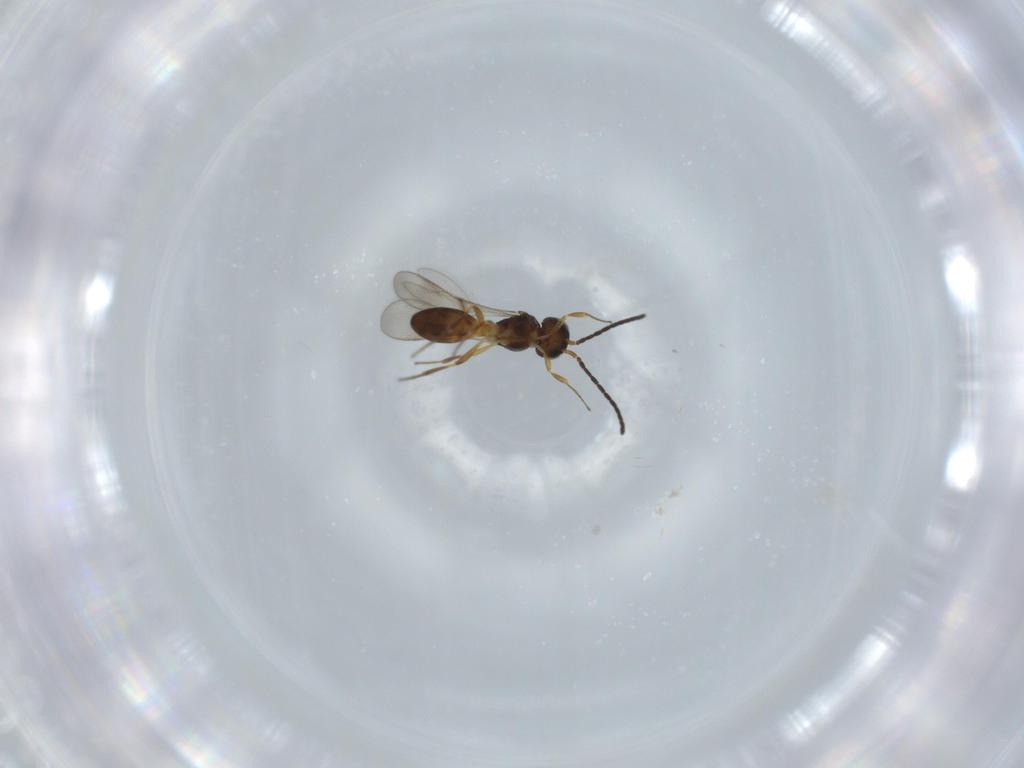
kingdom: Animalia
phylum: Arthropoda
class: Insecta
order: Hymenoptera
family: Scelionidae
